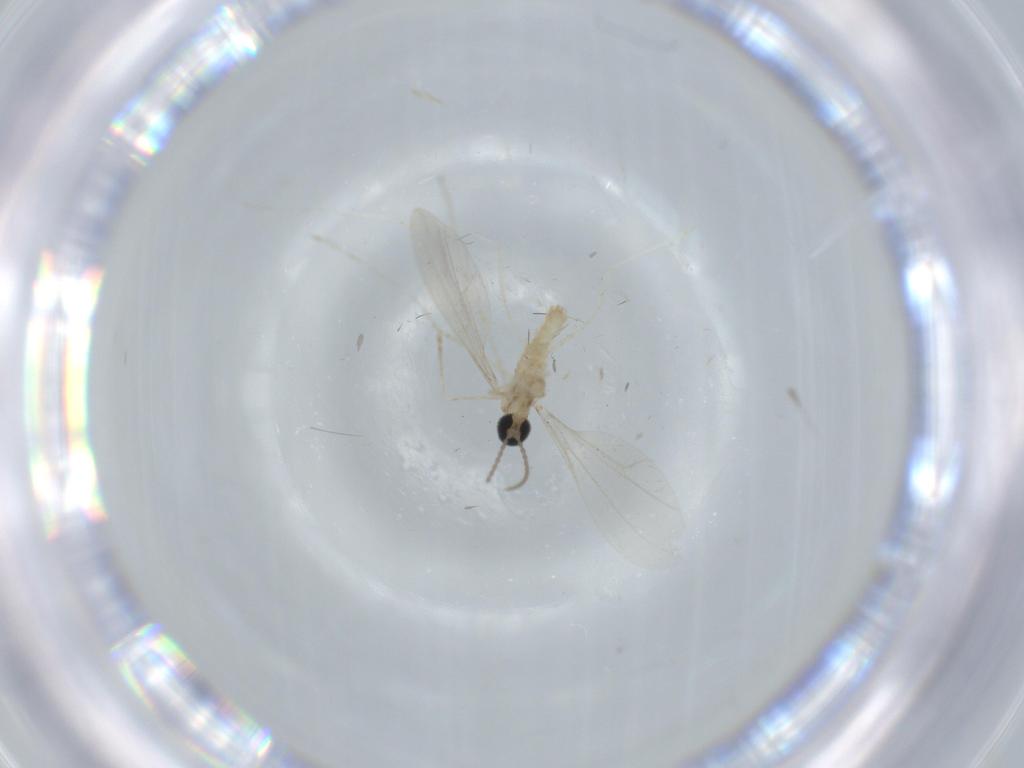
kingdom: Animalia
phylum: Arthropoda
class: Insecta
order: Diptera
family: Cecidomyiidae
